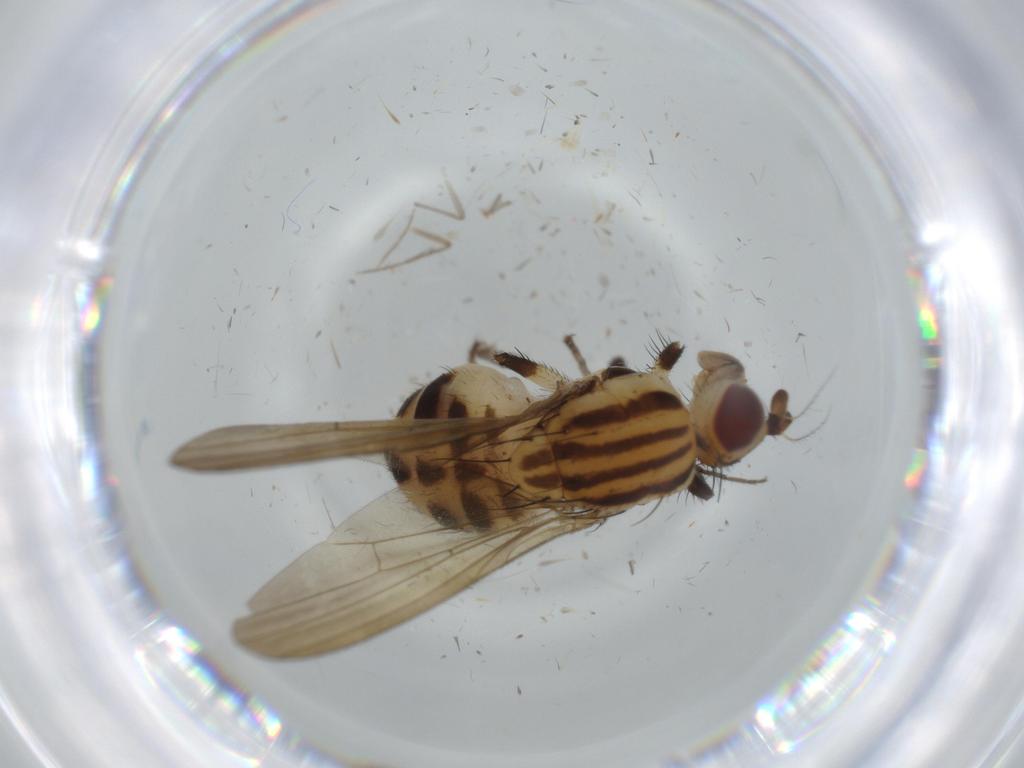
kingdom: Animalia
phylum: Arthropoda
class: Insecta
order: Diptera
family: Lauxaniidae
